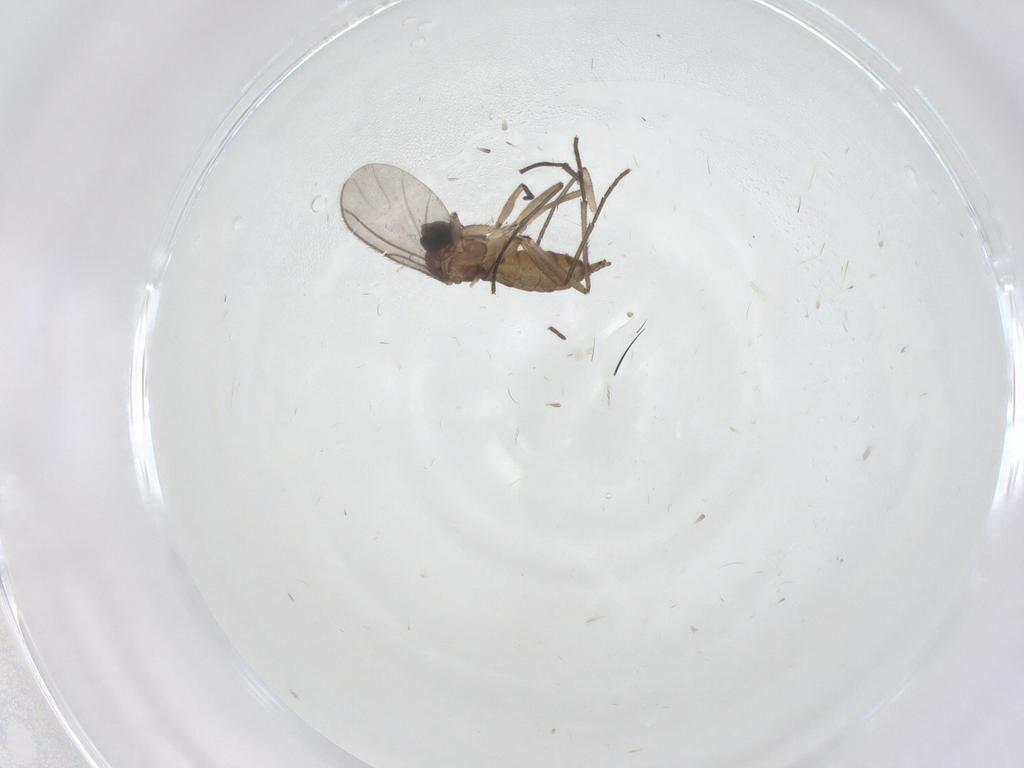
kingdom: Animalia
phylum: Arthropoda
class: Insecta
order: Diptera
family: Sciaridae
